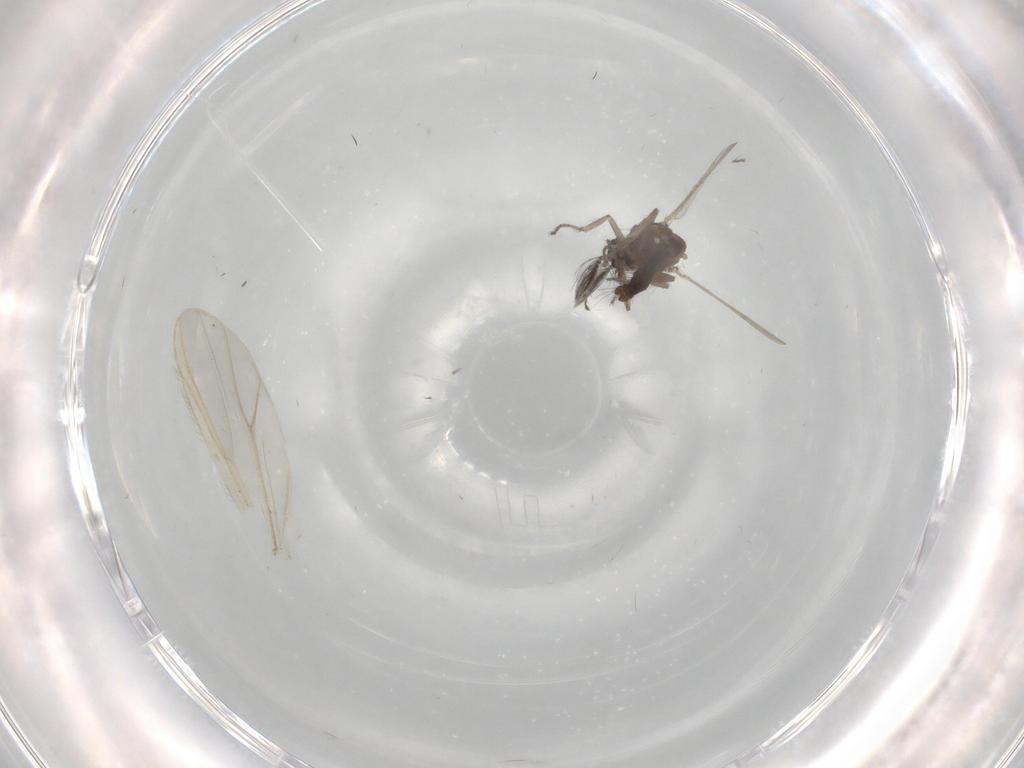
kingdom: Animalia
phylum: Arthropoda
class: Insecta
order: Diptera
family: Ceratopogonidae
